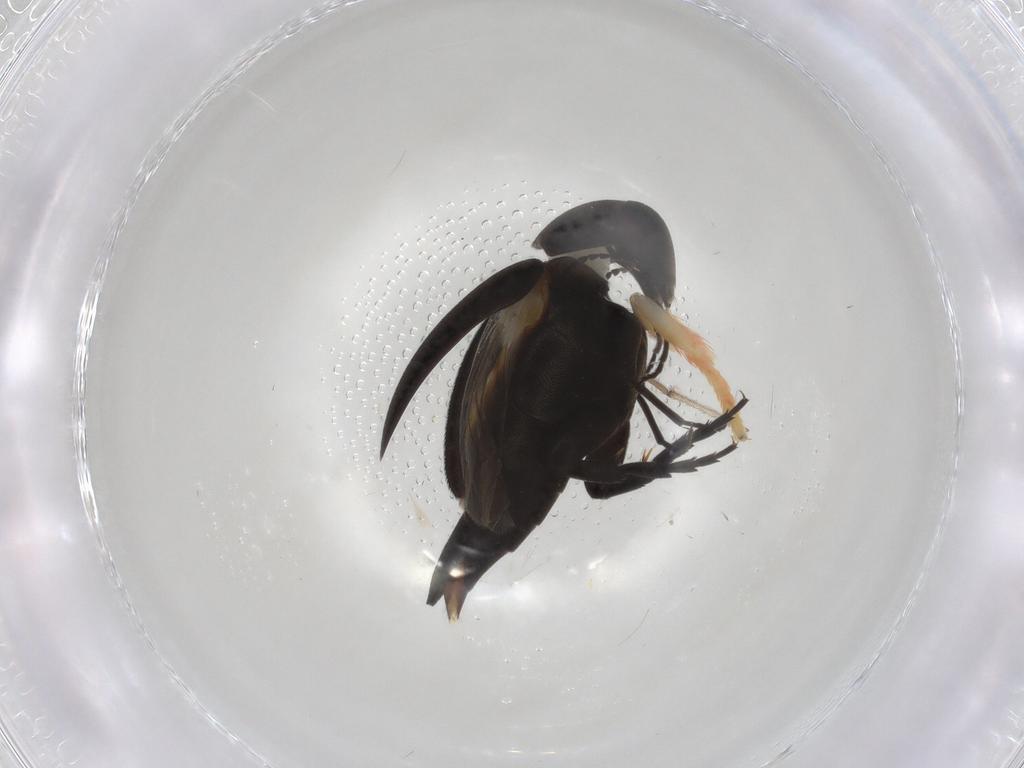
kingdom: Animalia
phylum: Arthropoda
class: Insecta
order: Coleoptera
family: Mordellidae
